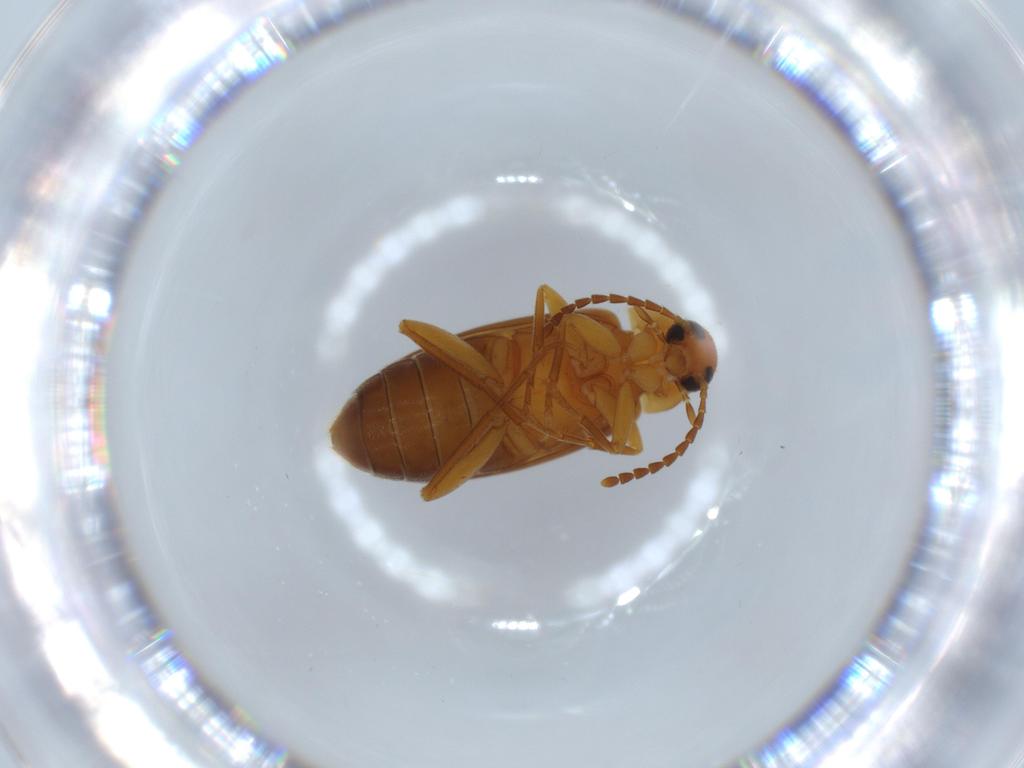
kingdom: Animalia
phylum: Arthropoda
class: Insecta
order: Coleoptera
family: Scraptiidae
